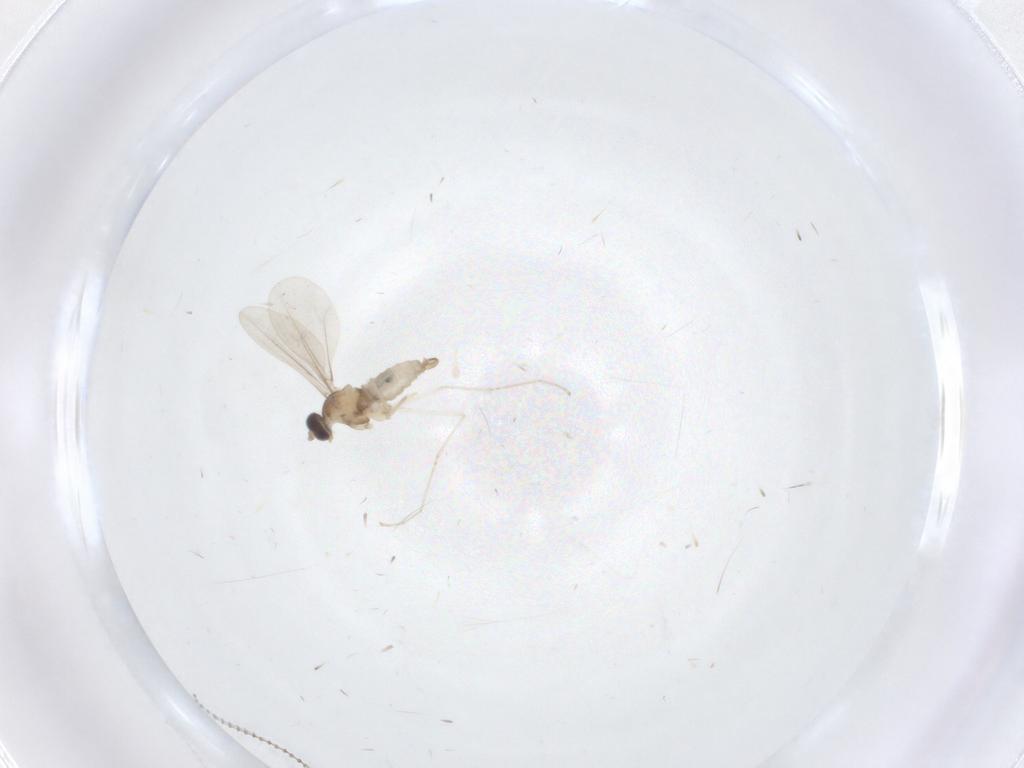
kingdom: Animalia
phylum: Arthropoda
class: Insecta
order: Diptera
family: Cecidomyiidae
